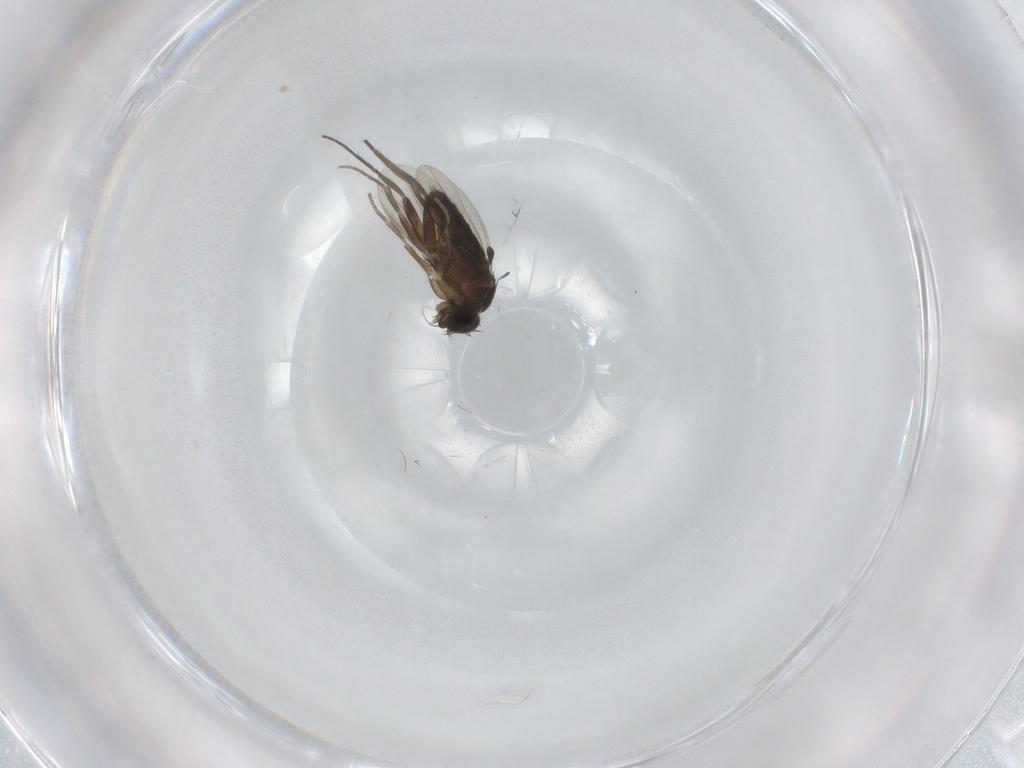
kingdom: Animalia
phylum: Arthropoda
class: Insecta
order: Diptera
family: Phoridae
